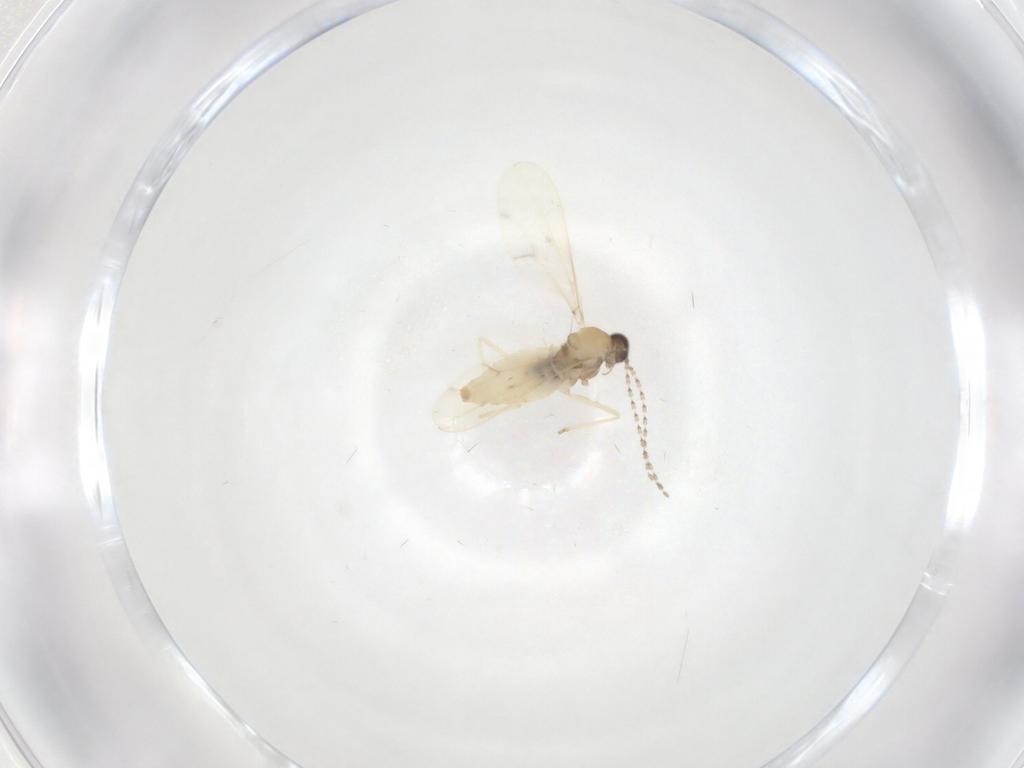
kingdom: Animalia
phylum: Arthropoda
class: Insecta
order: Diptera
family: Cecidomyiidae
